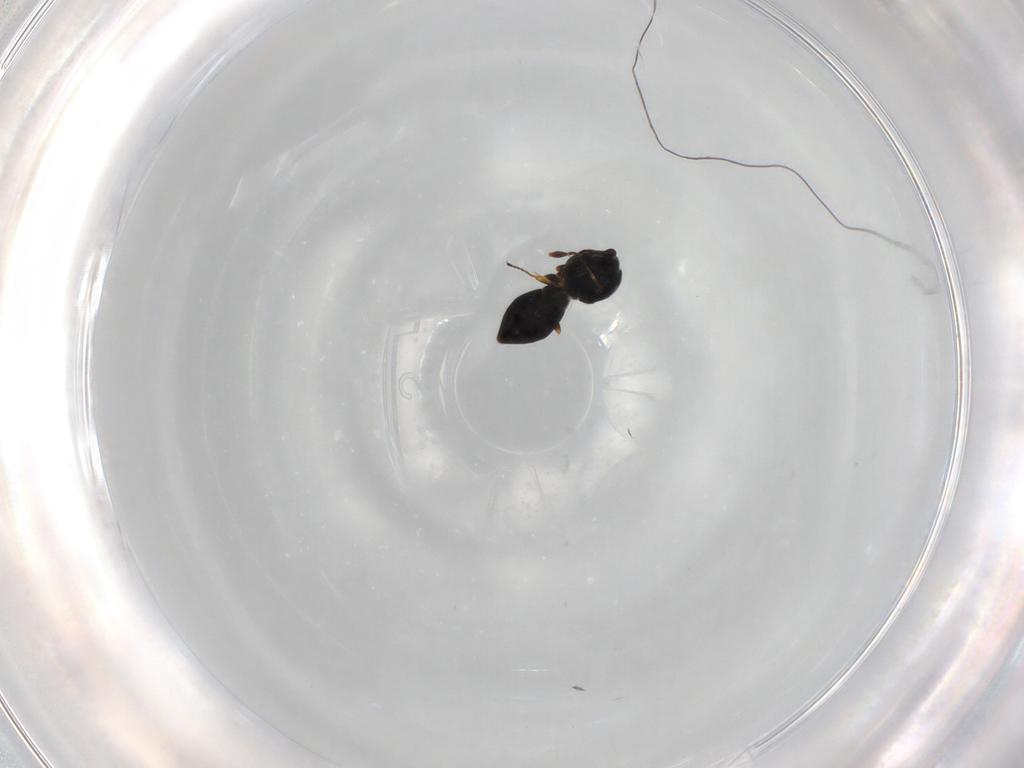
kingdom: Animalia
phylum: Arthropoda
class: Insecta
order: Hymenoptera
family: Platygastridae
